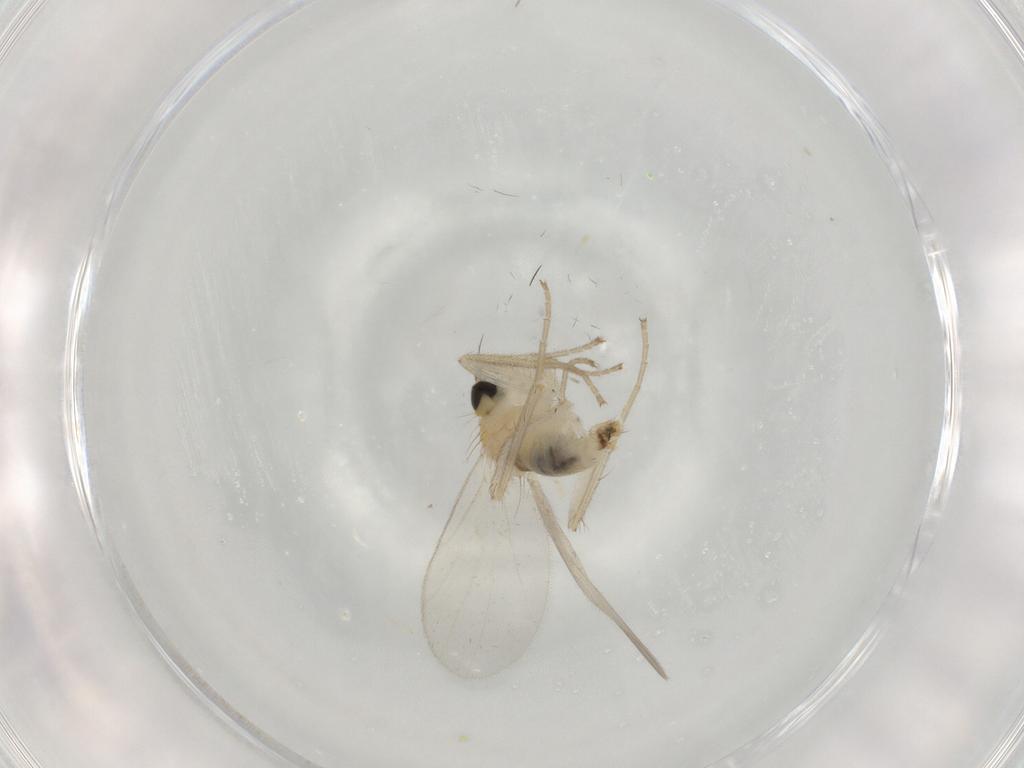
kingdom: Animalia
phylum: Arthropoda
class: Insecta
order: Diptera
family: Hybotidae
